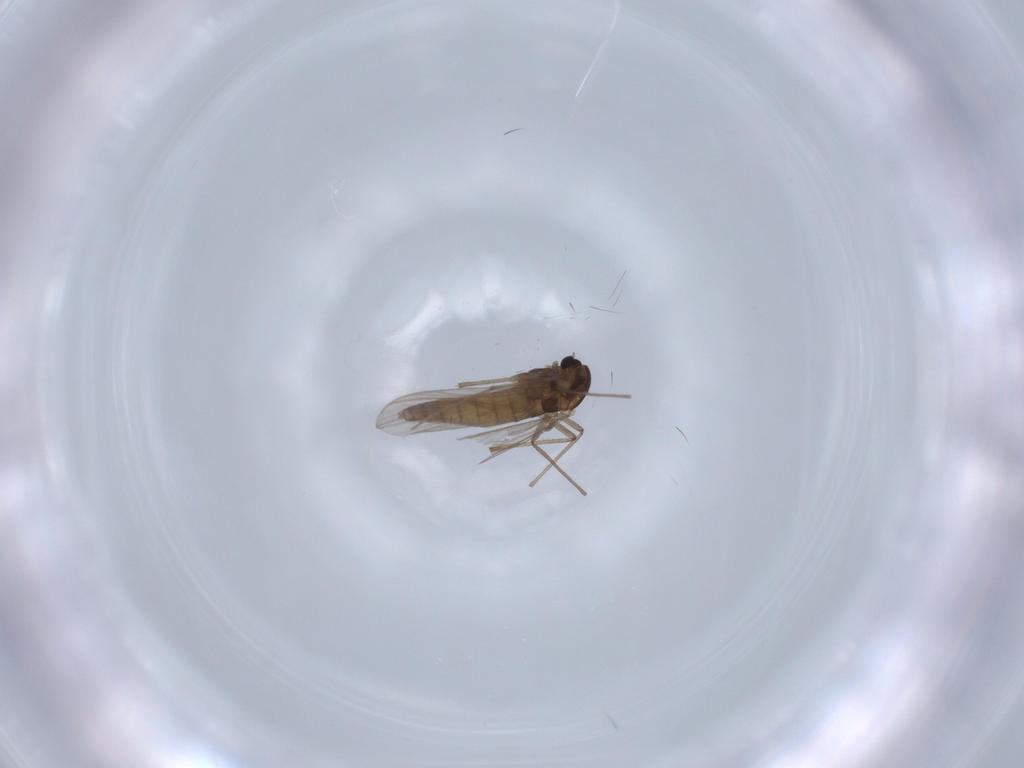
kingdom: Animalia
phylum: Arthropoda
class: Insecta
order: Diptera
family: Chironomidae
